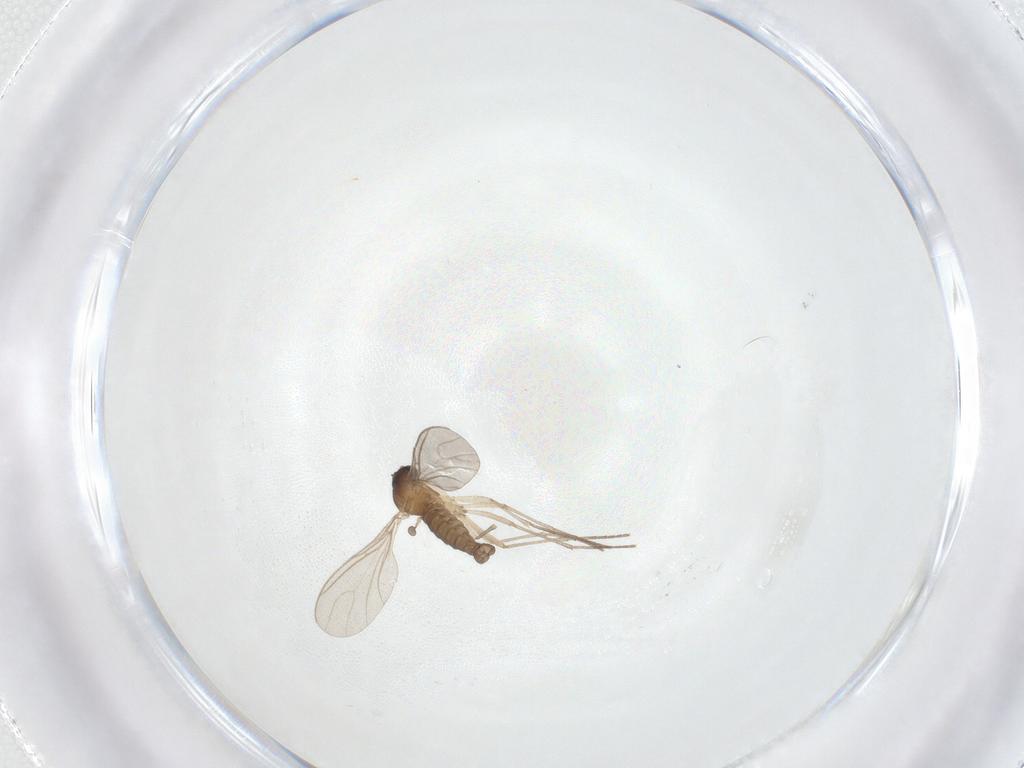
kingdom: Animalia
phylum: Arthropoda
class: Insecta
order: Diptera
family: Sciaridae
